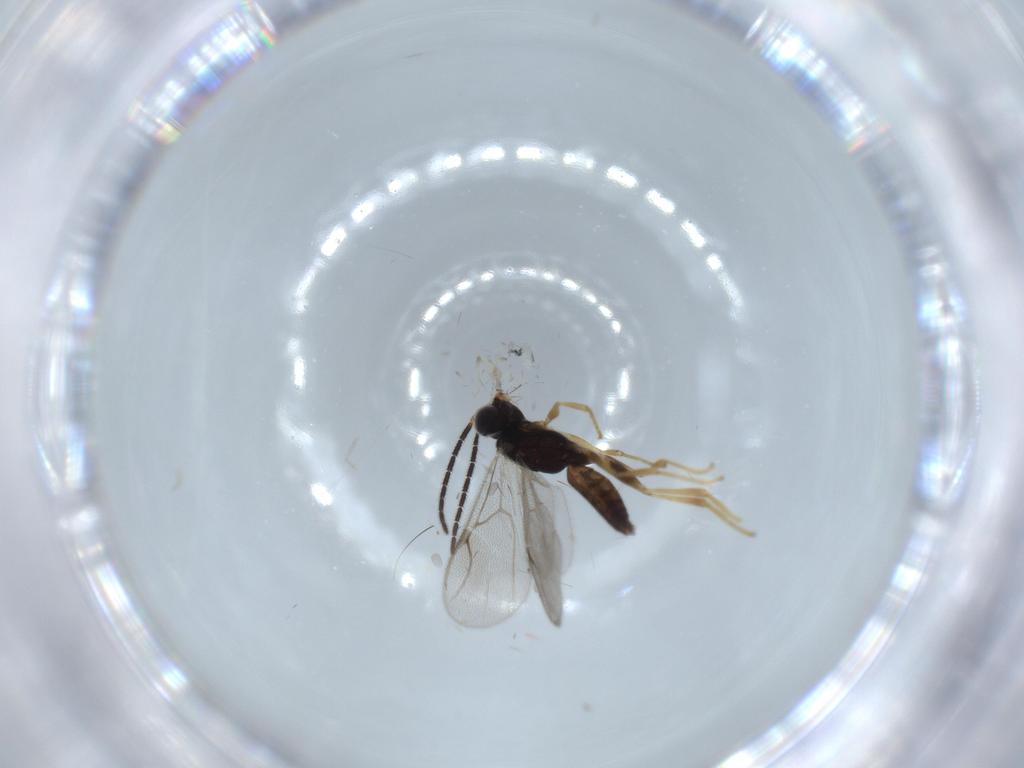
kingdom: Animalia
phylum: Arthropoda
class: Insecta
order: Hymenoptera
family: Dryinidae
